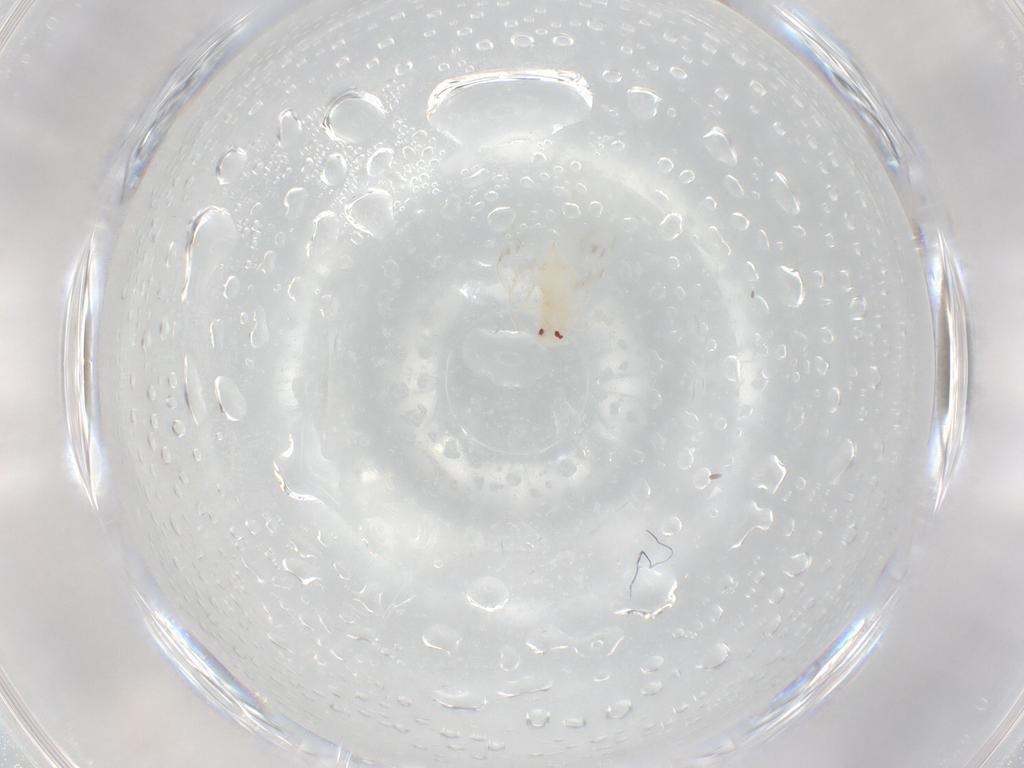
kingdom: Animalia
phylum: Arthropoda
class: Insecta
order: Hemiptera
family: Aleyrodidae
